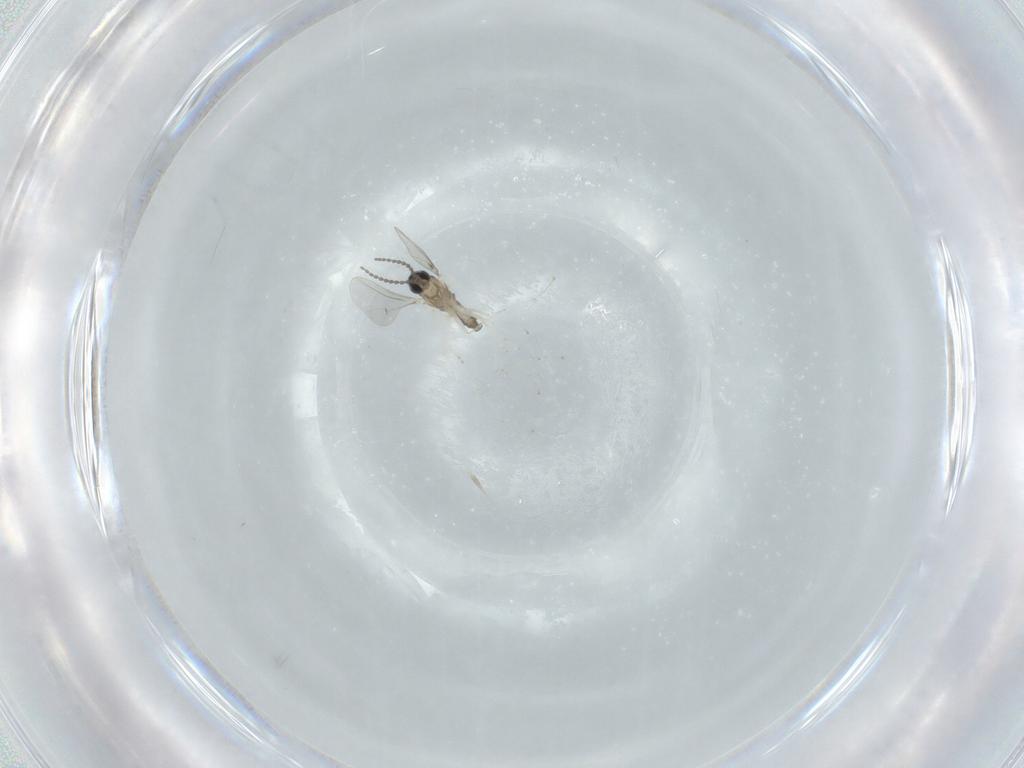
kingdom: Animalia
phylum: Arthropoda
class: Insecta
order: Diptera
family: Cecidomyiidae
